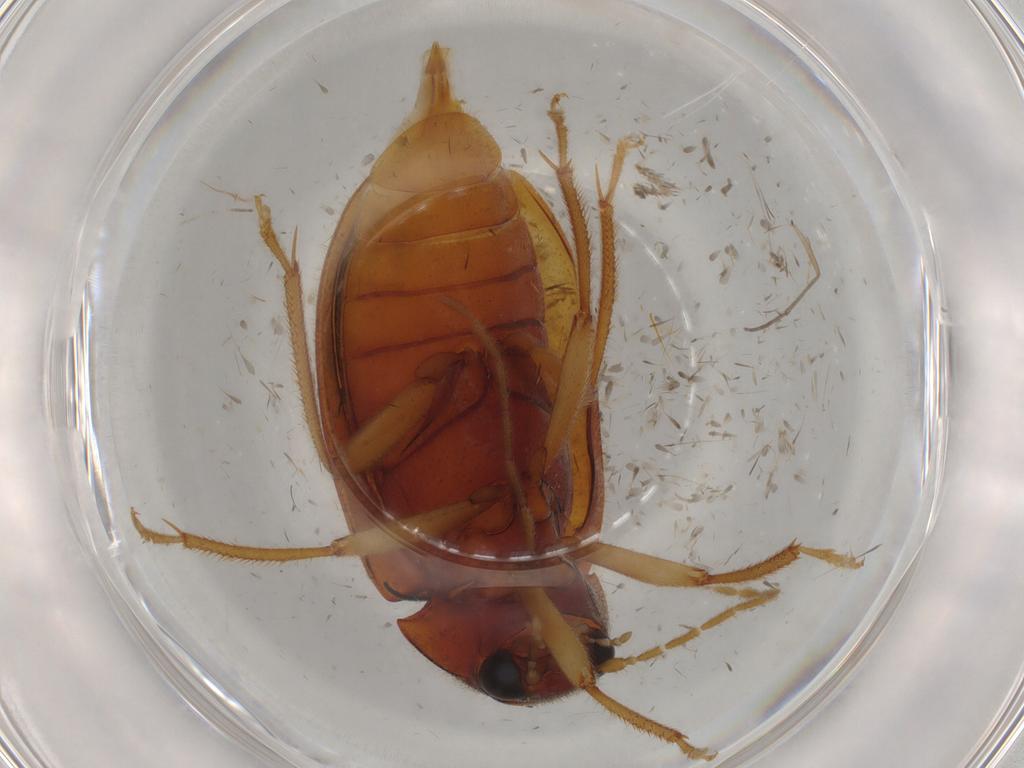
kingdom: Animalia
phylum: Arthropoda
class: Insecta
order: Coleoptera
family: Ptilodactylidae
